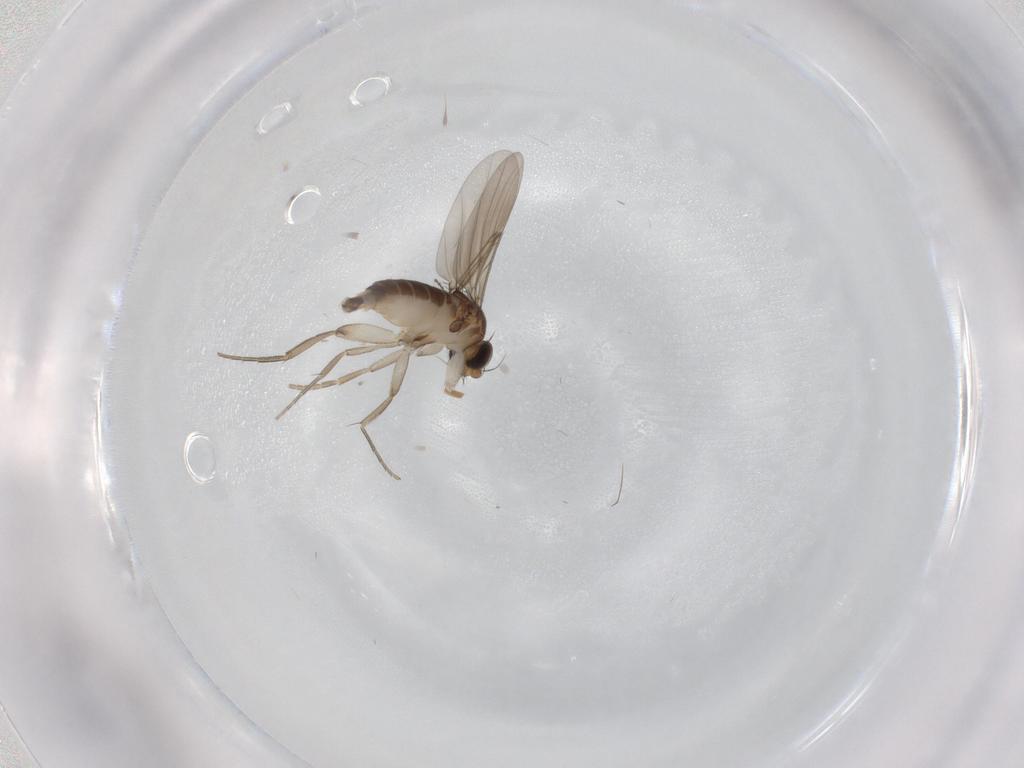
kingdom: Animalia
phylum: Arthropoda
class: Insecta
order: Diptera
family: Phoridae
